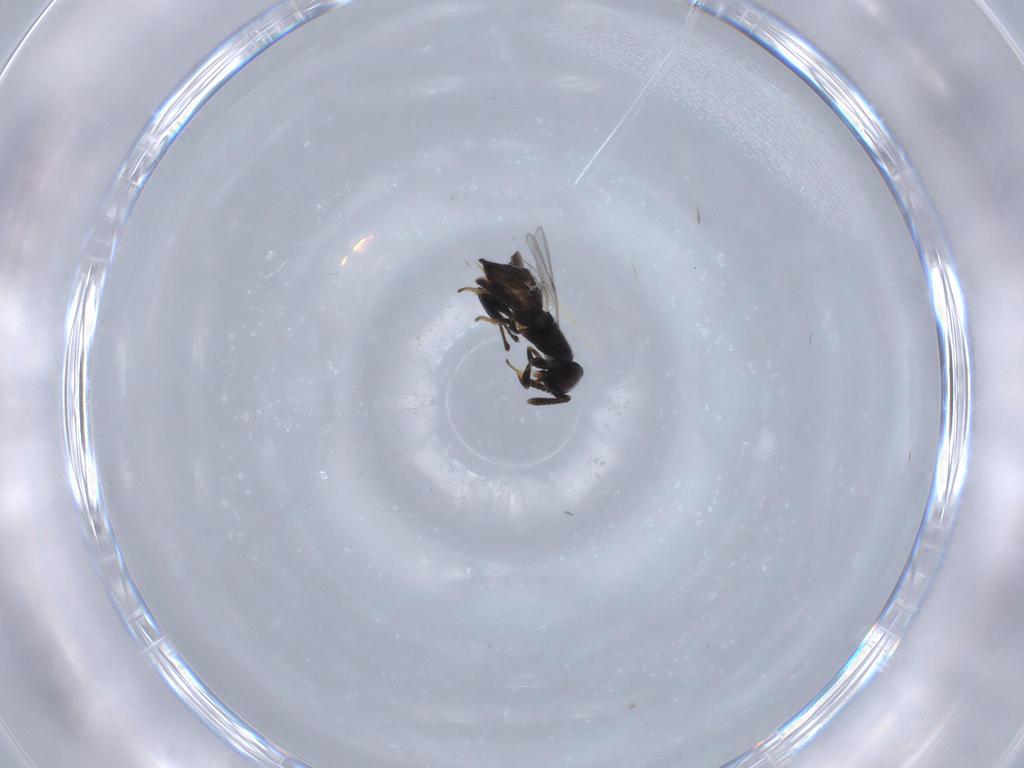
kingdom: Animalia
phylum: Arthropoda
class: Insecta
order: Hymenoptera
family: Encyrtidae
